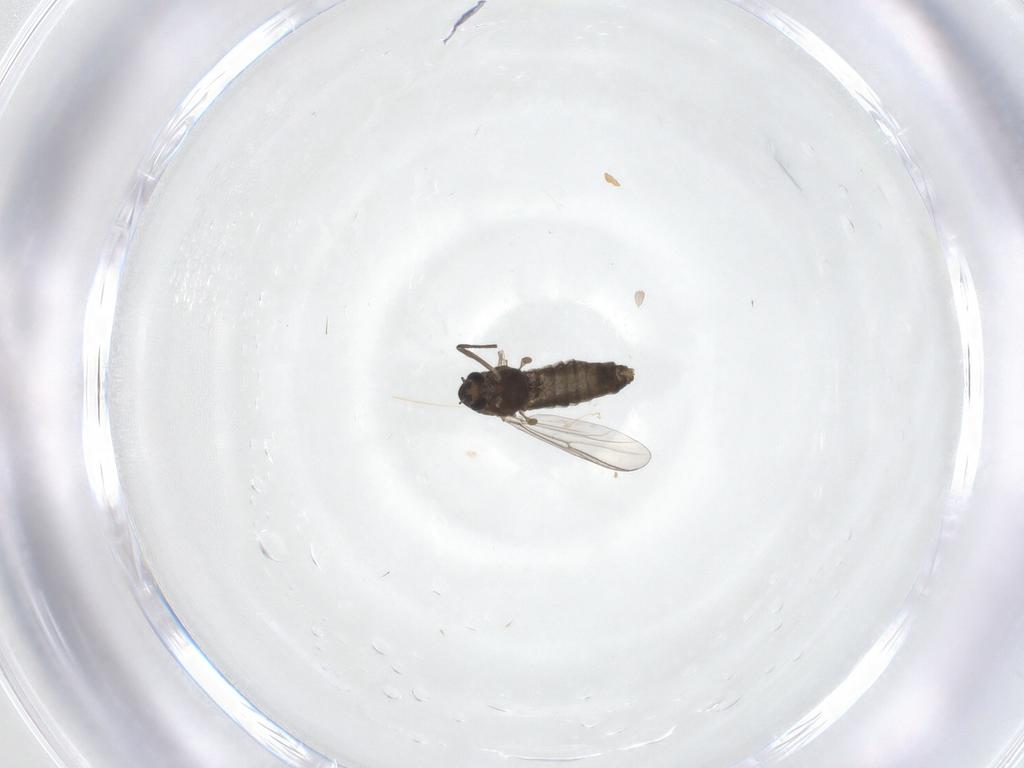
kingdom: Animalia
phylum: Arthropoda
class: Insecta
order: Diptera
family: Chironomidae
